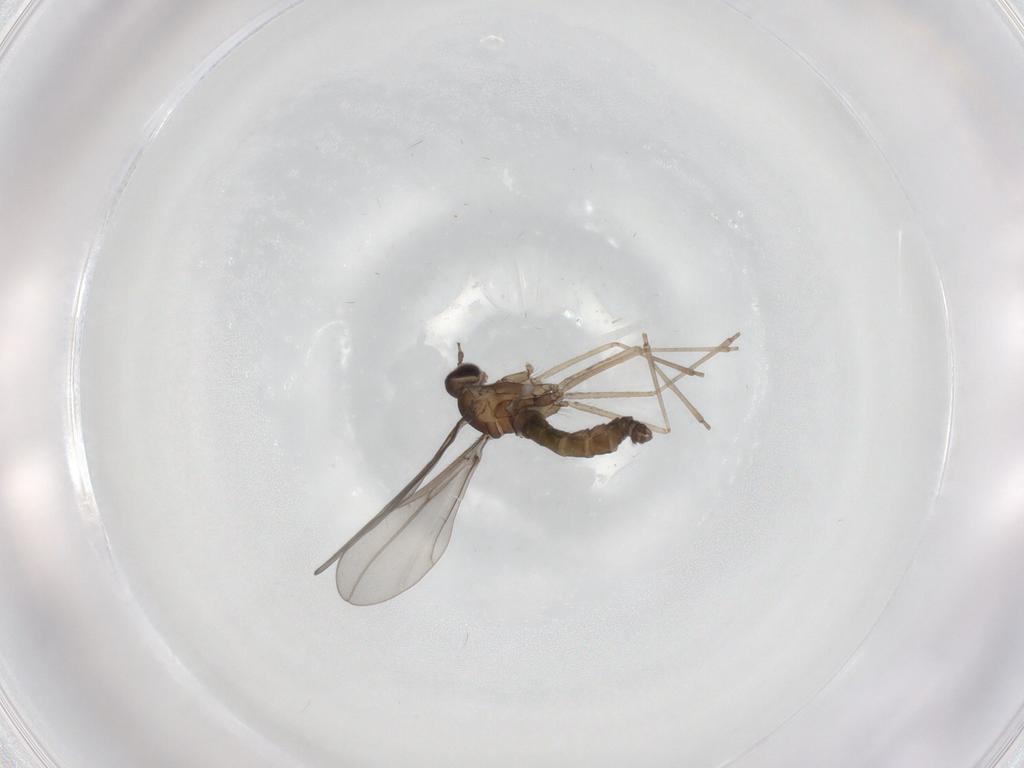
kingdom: Animalia
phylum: Arthropoda
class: Insecta
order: Diptera
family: Cecidomyiidae
